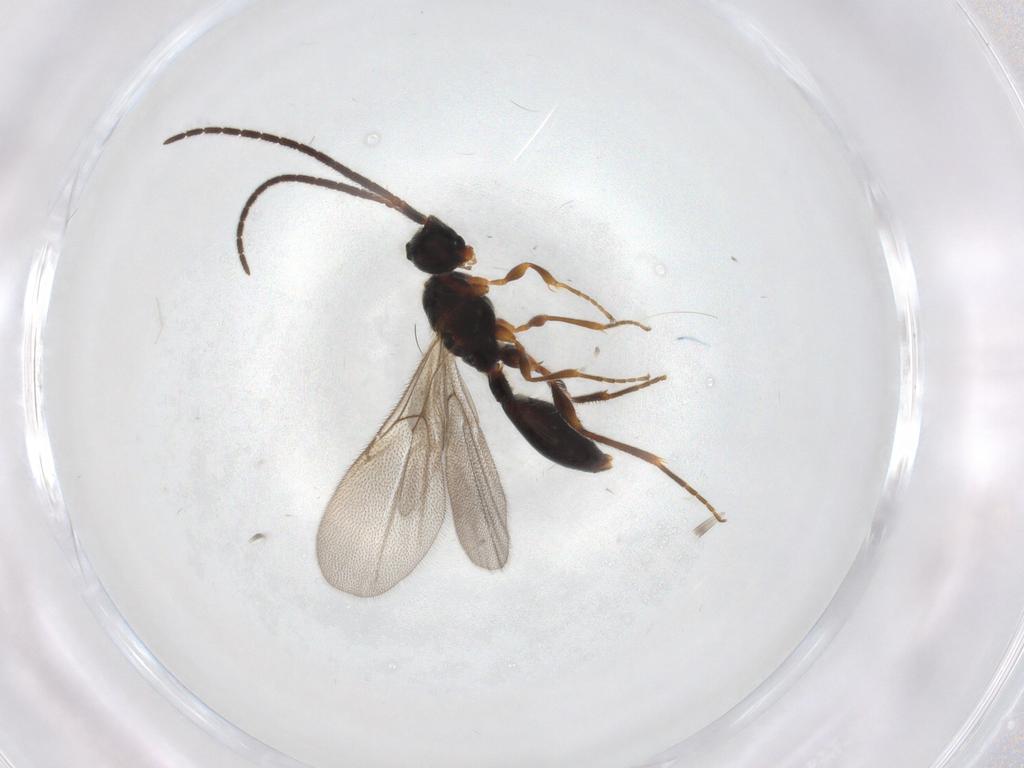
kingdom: Animalia
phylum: Arthropoda
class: Insecta
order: Hymenoptera
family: Diapriidae
